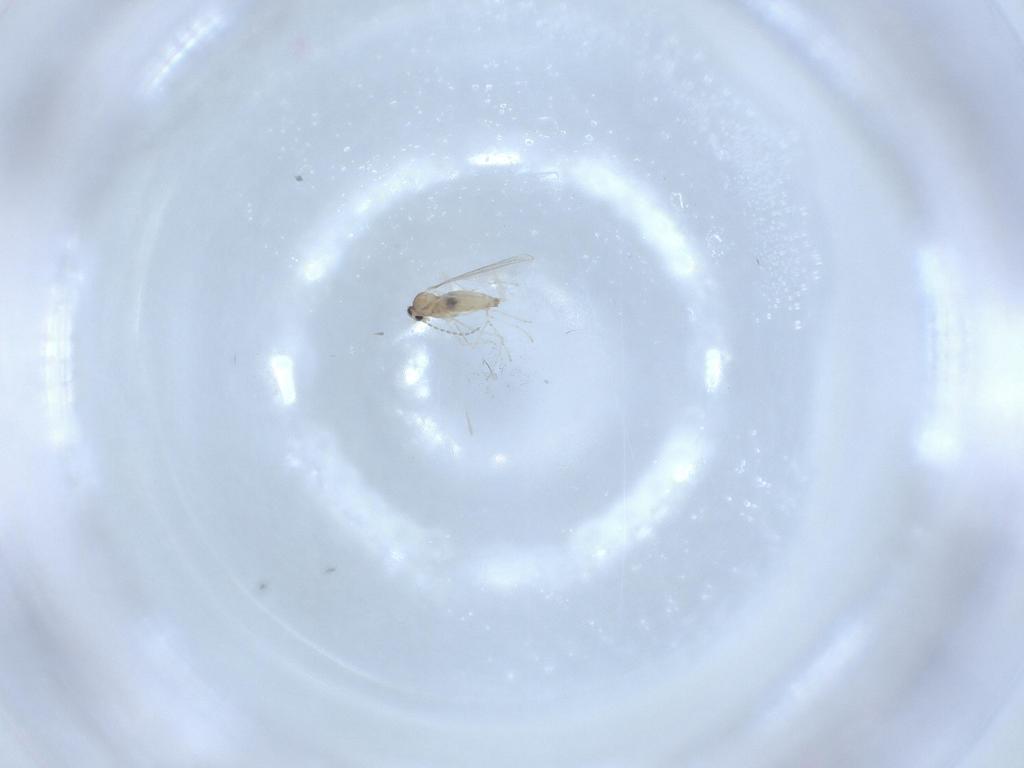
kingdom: Animalia
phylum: Arthropoda
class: Insecta
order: Diptera
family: Cecidomyiidae
